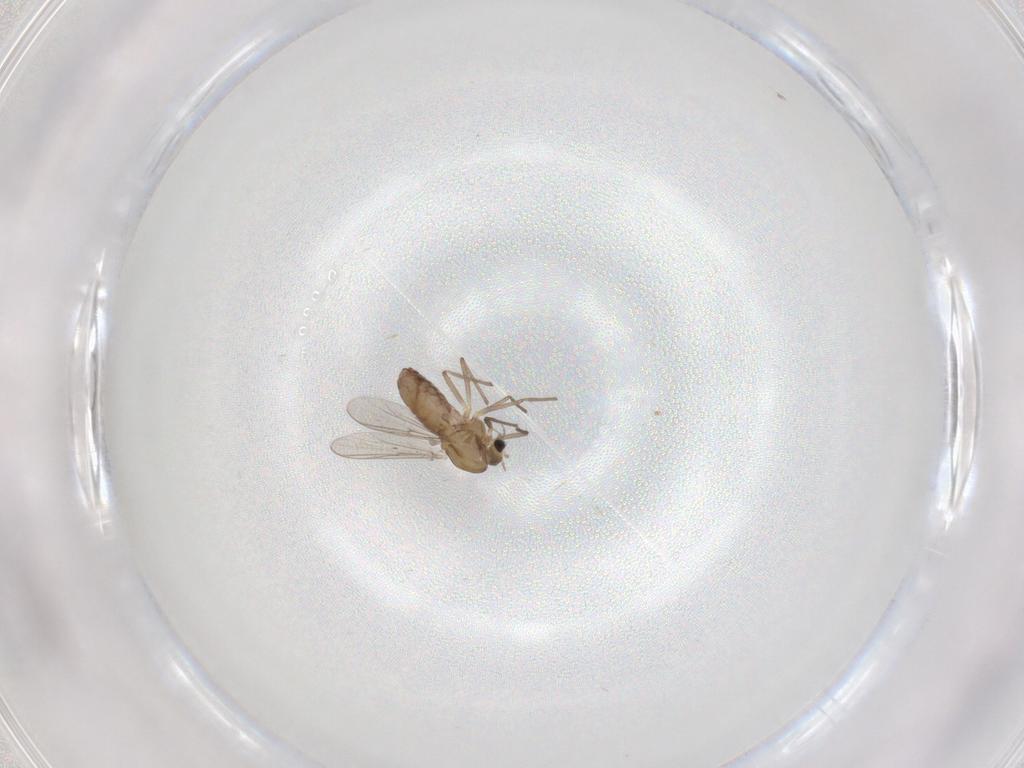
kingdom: Animalia
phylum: Arthropoda
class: Insecta
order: Diptera
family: Chironomidae
